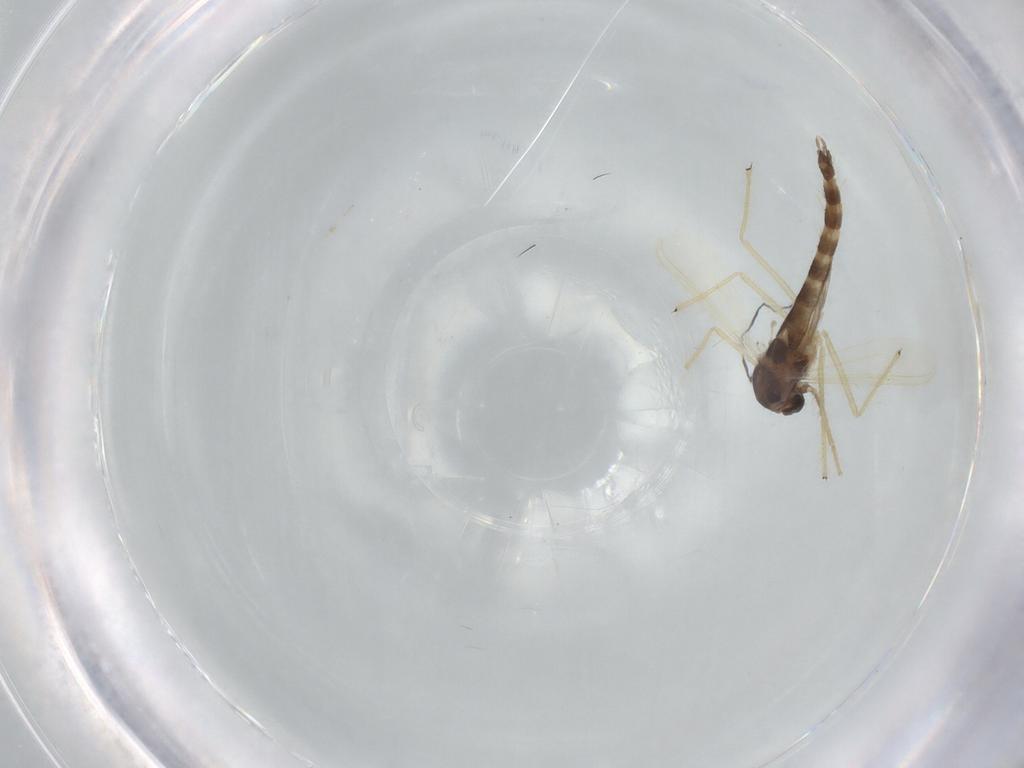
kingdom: Animalia
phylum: Arthropoda
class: Insecta
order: Diptera
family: Chironomidae
